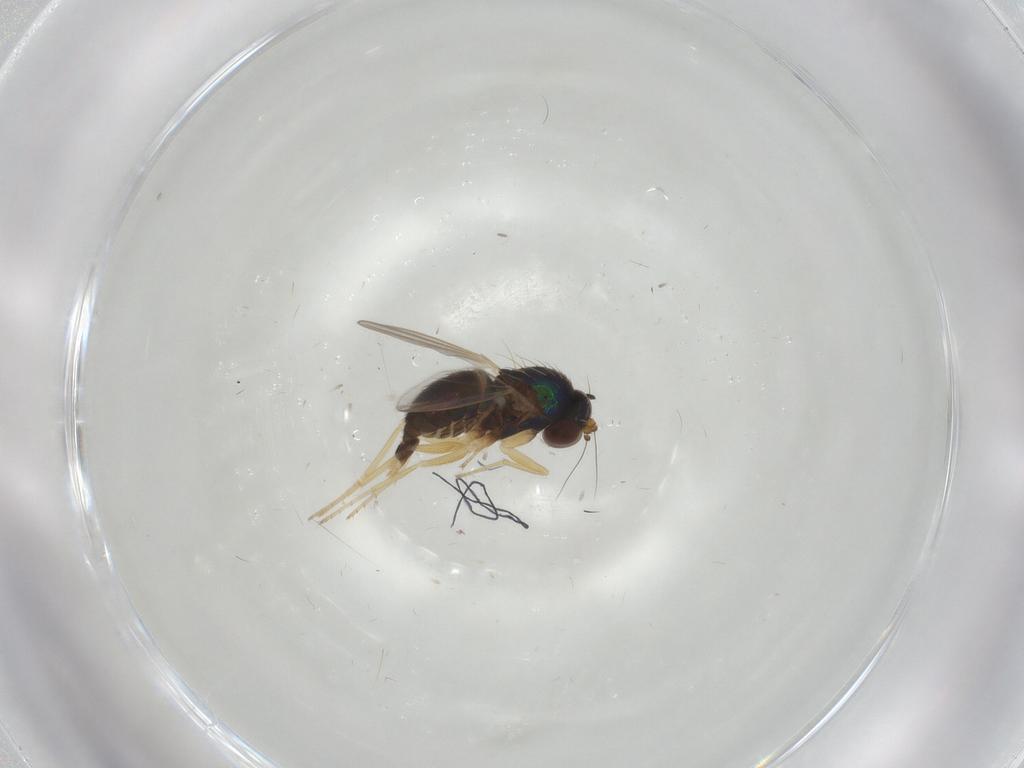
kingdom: Animalia
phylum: Arthropoda
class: Insecta
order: Diptera
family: Dolichopodidae
